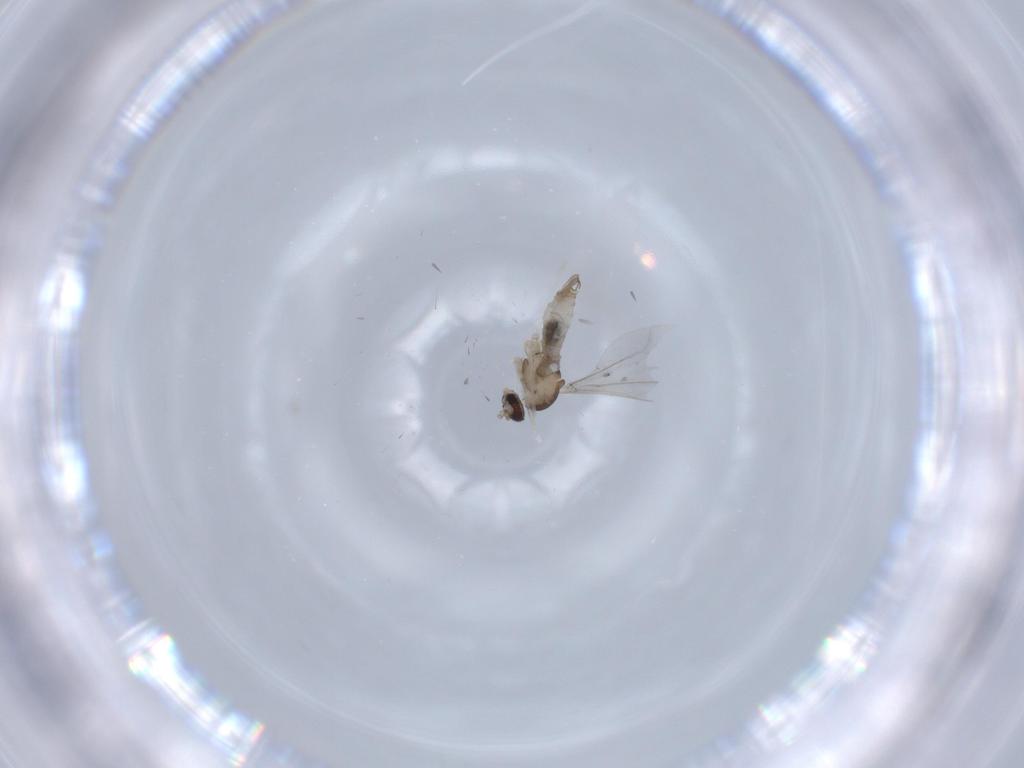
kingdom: Animalia
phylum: Arthropoda
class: Insecta
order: Diptera
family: Cecidomyiidae
